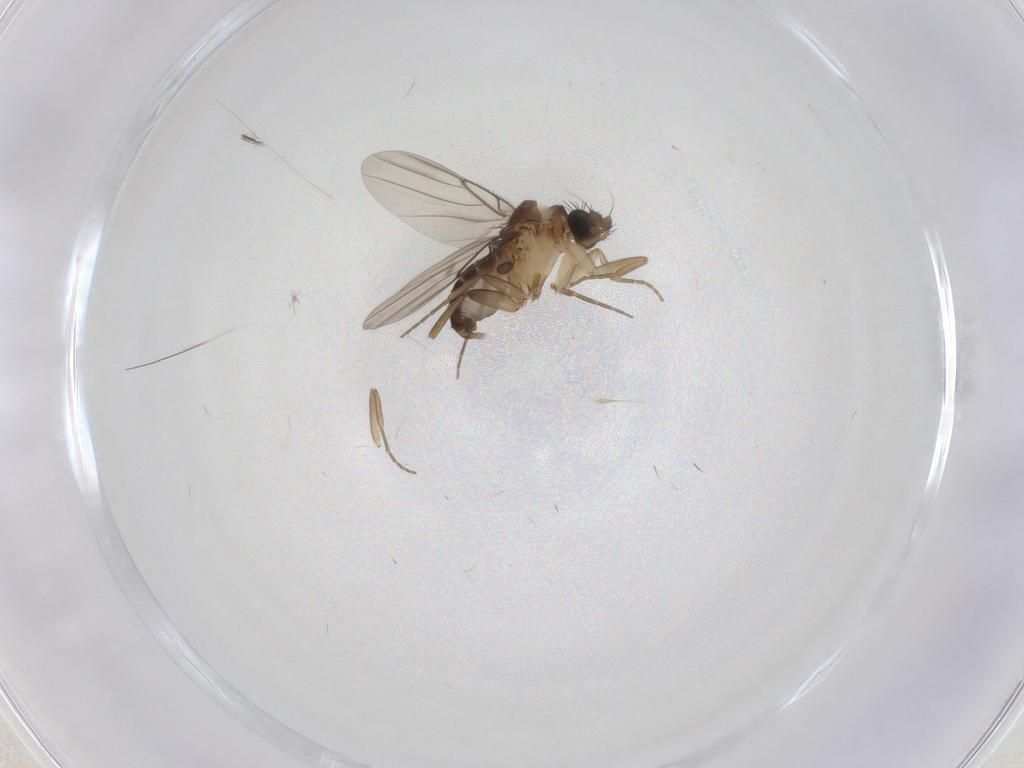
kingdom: Animalia
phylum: Arthropoda
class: Insecta
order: Diptera
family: Hybotidae
